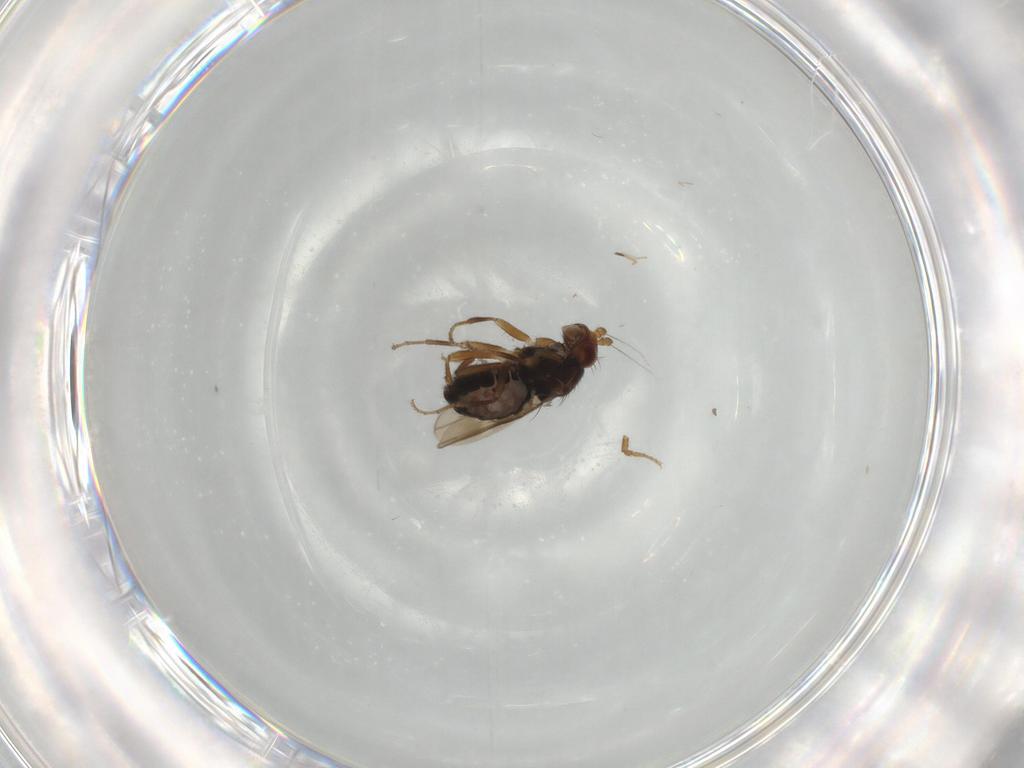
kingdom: Animalia
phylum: Arthropoda
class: Insecta
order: Diptera
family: Sphaeroceridae
